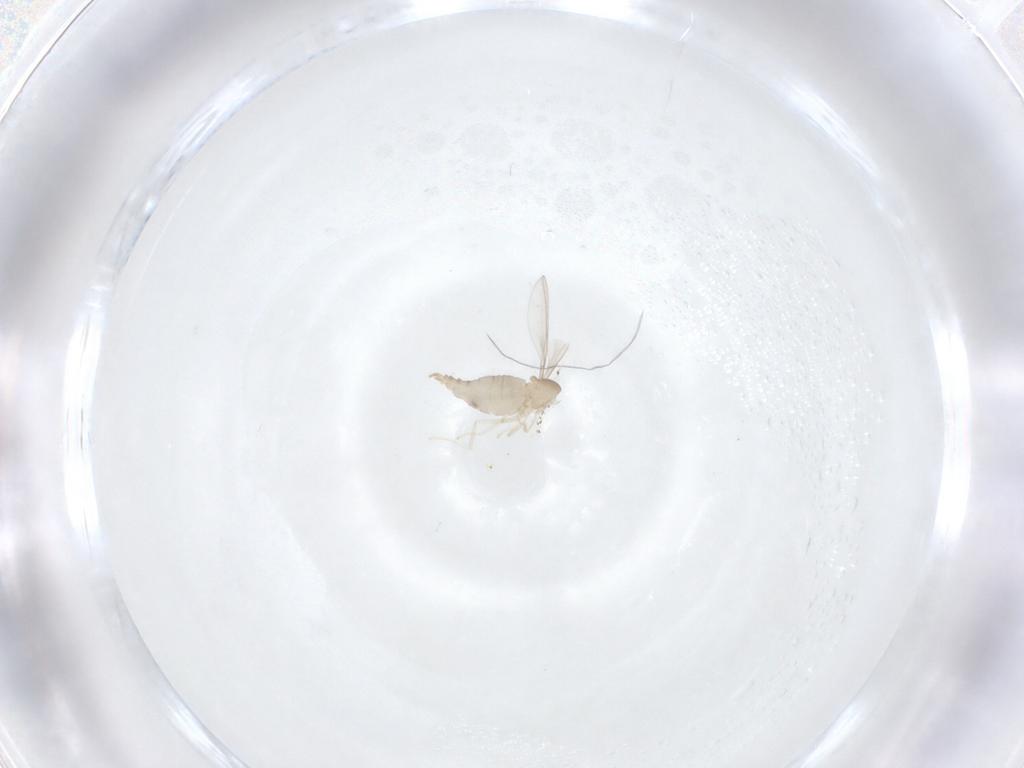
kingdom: Animalia
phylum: Arthropoda
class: Insecta
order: Diptera
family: Cecidomyiidae
